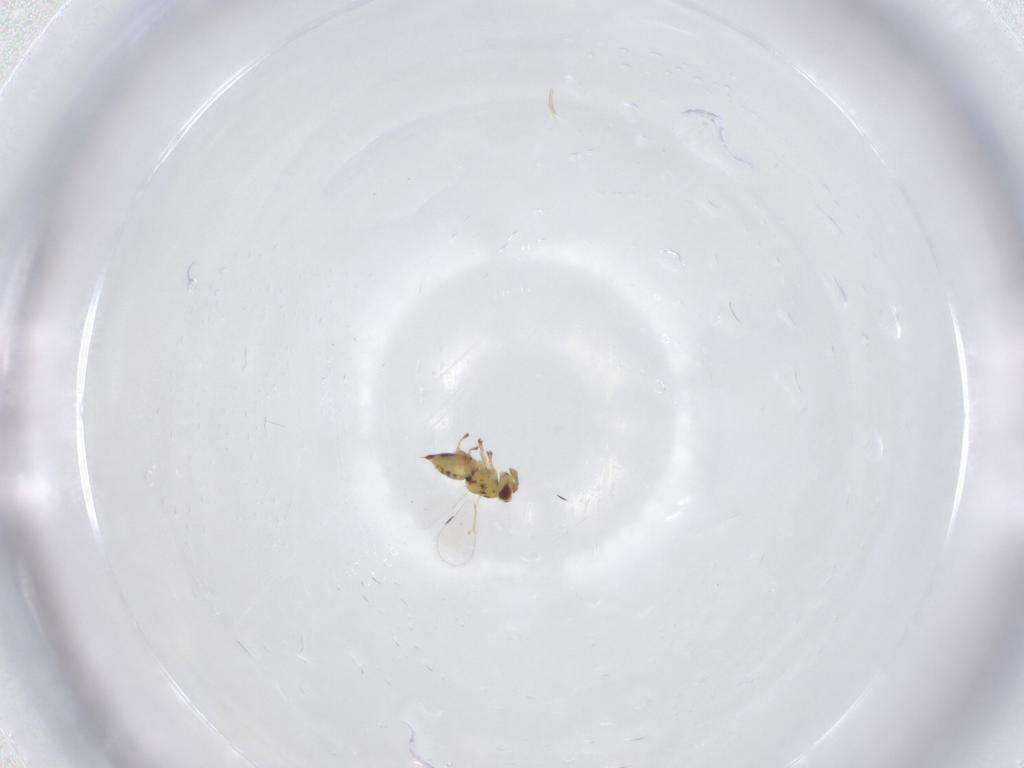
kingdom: Animalia
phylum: Arthropoda
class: Insecta
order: Hymenoptera
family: Eulophidae
